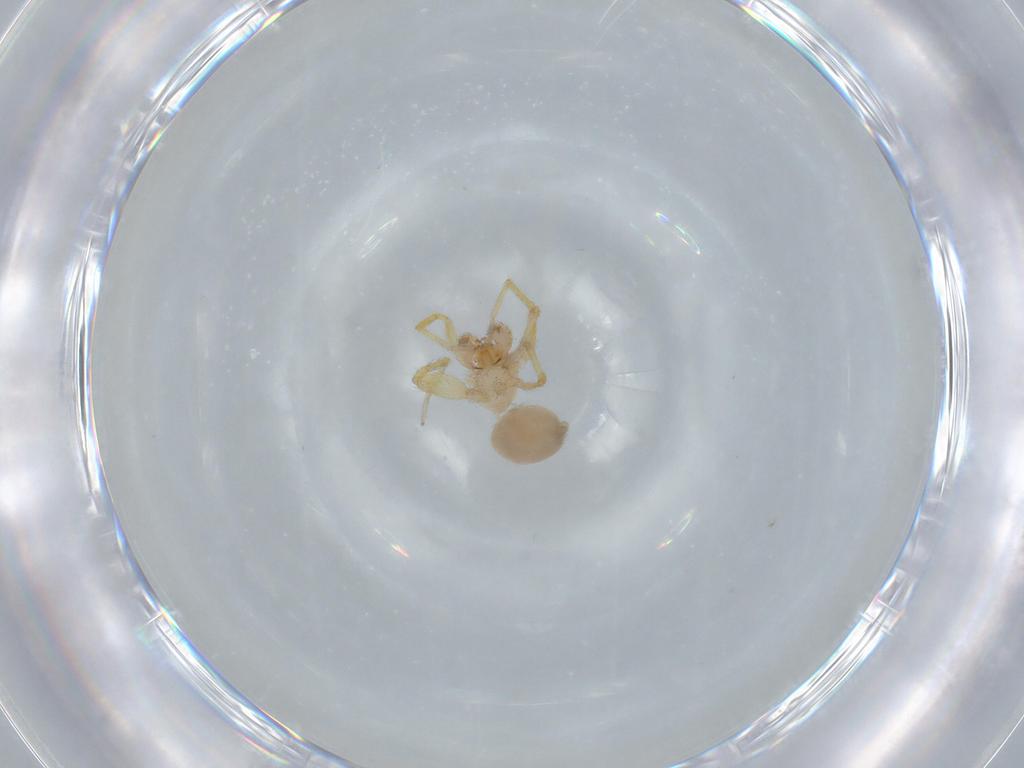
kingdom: Animalia
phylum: Arthropoda
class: Arachnida
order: Araneae
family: Oonopidae
